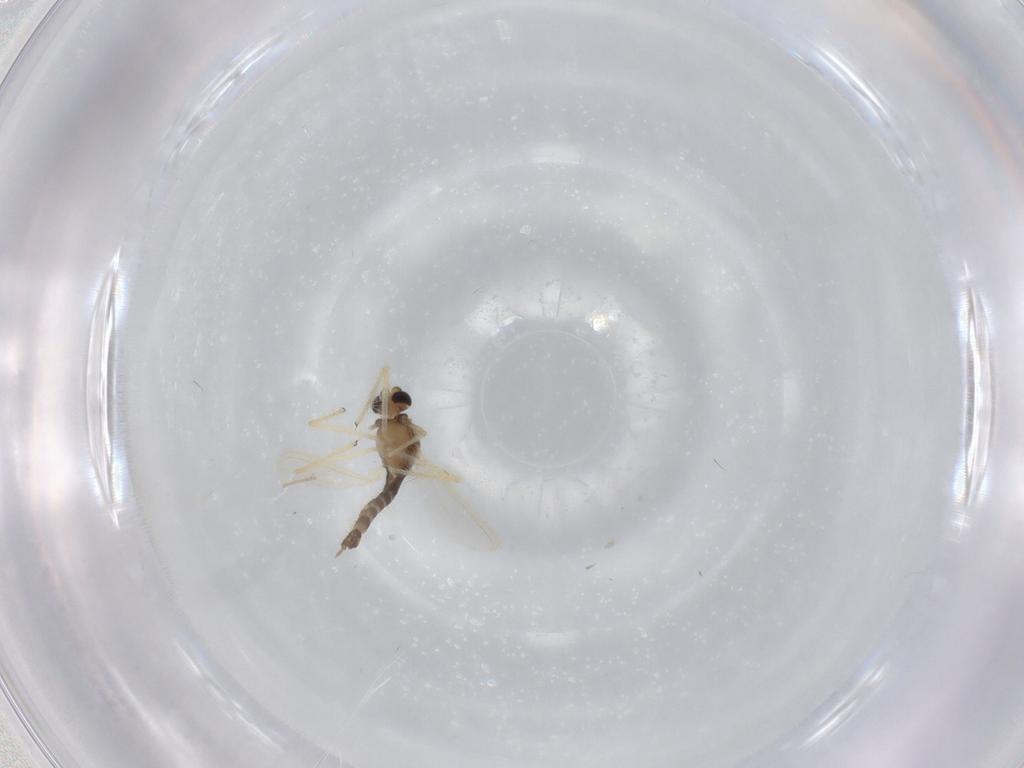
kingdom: Animalia
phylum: Arthropoda
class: Insecta
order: Diptera
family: Chironomidae
